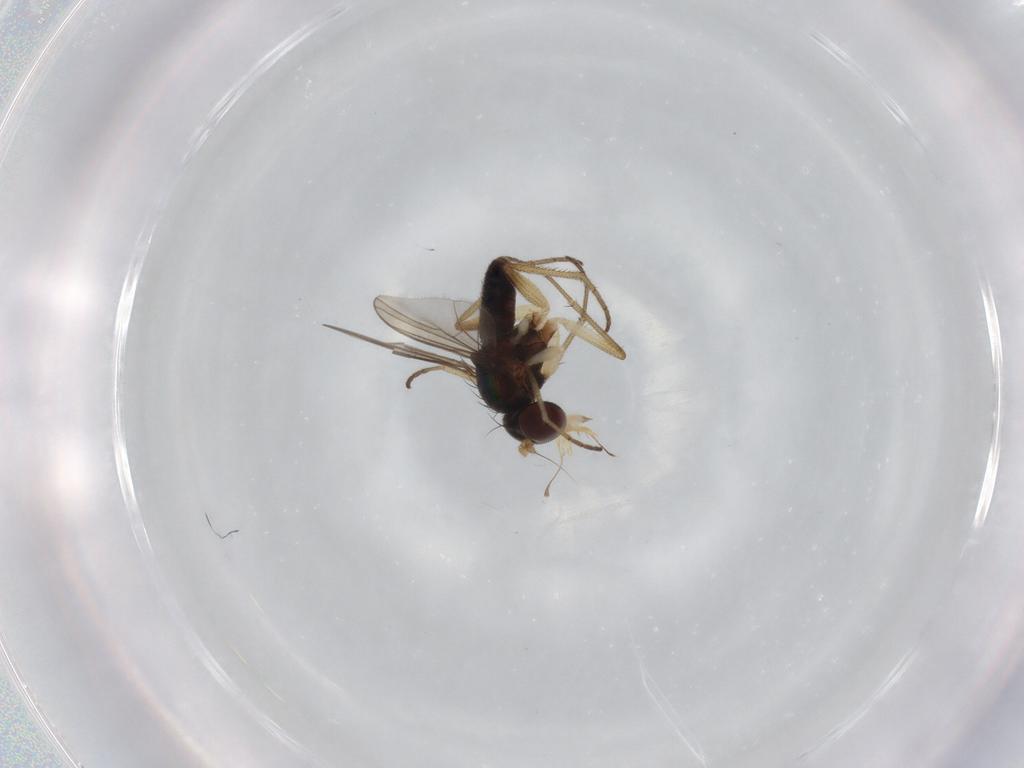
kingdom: Animalia
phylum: Arthropoda
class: Insecta
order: Diptera
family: Dolichopodidae
